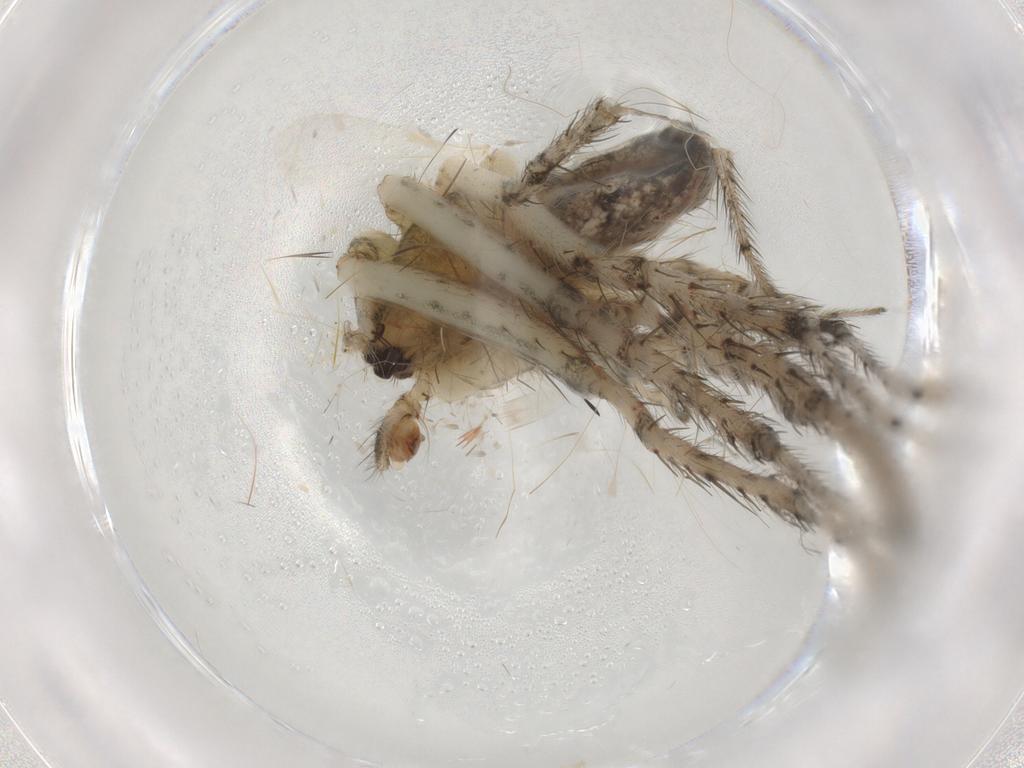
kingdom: Animalia
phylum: Arthropoda
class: Arachnida
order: Araneae
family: Araneidae
